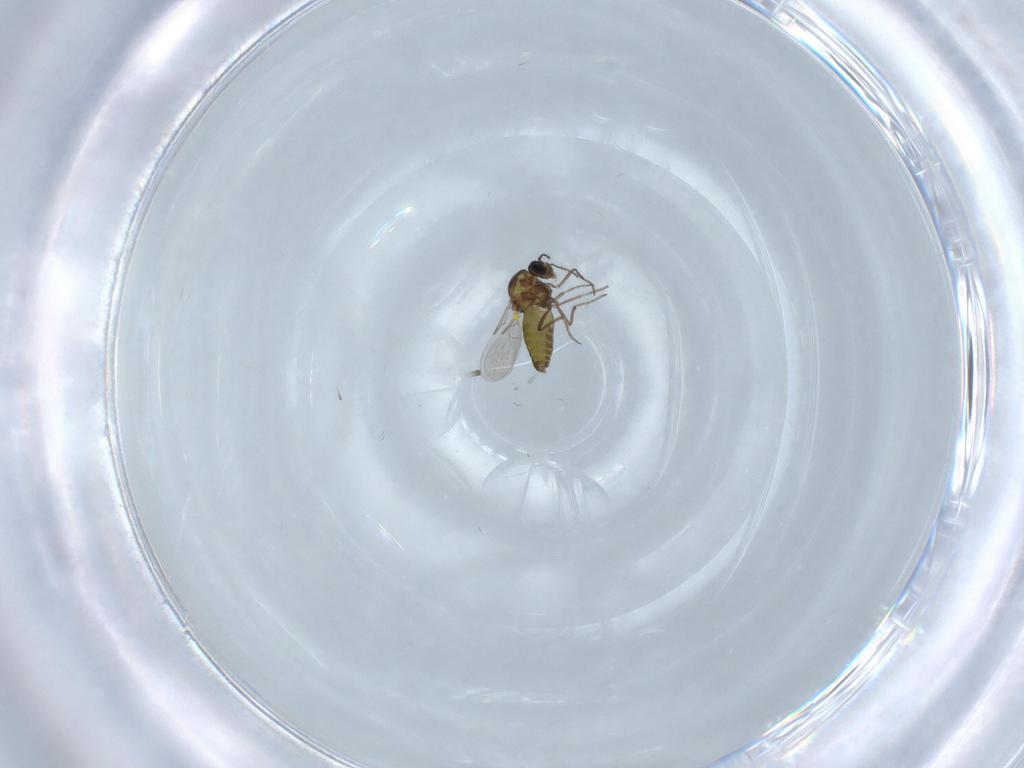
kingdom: Animalia
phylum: Arthropoda
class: Insecta
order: Diptera
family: Ceratopogonidae
